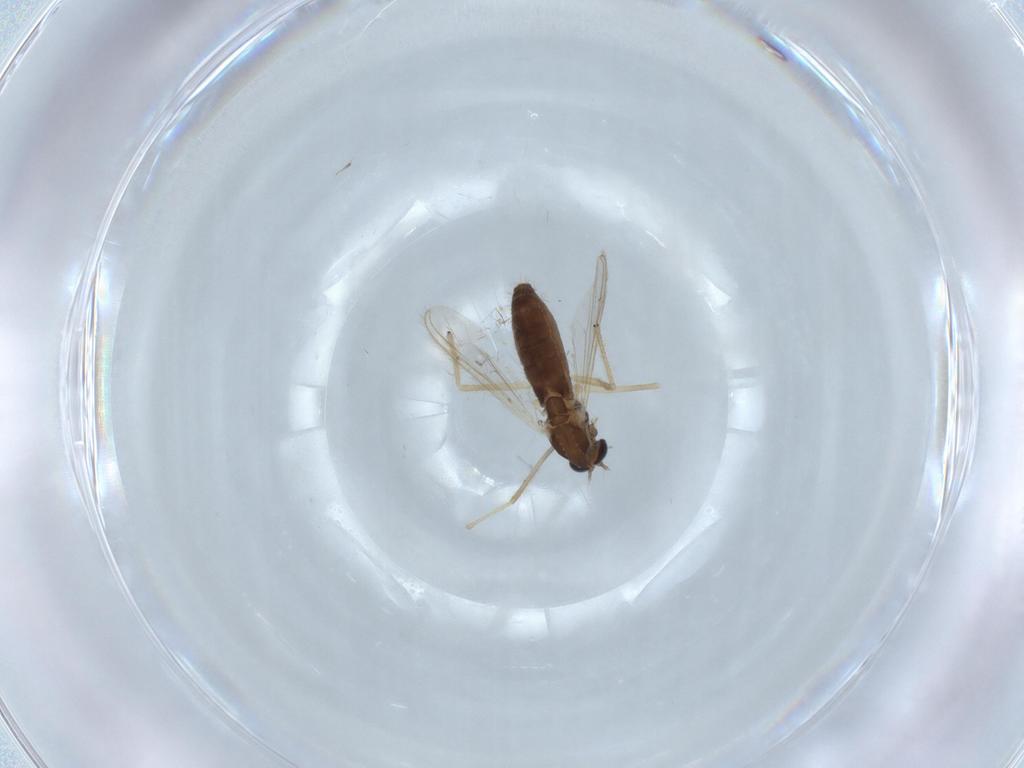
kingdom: Animalia
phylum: Arthropoda
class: Insecta
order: Diptera
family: Chironomidae
